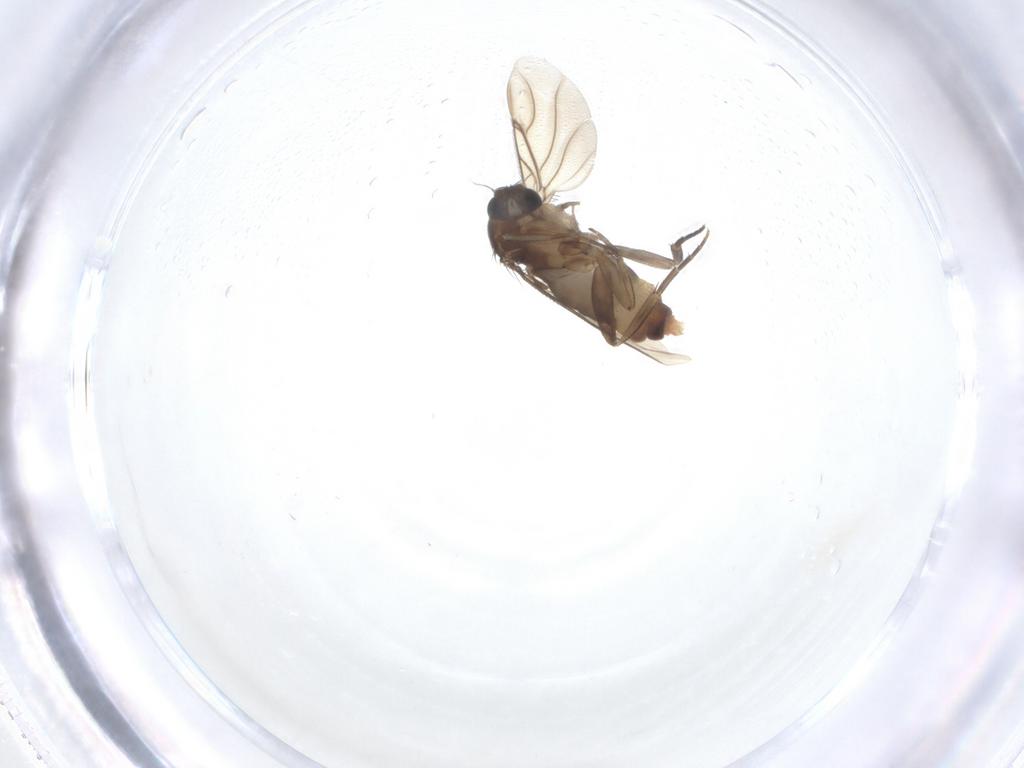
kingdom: Animalia
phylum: Arthropoda
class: Insecta
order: Diptera
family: Phoridae
